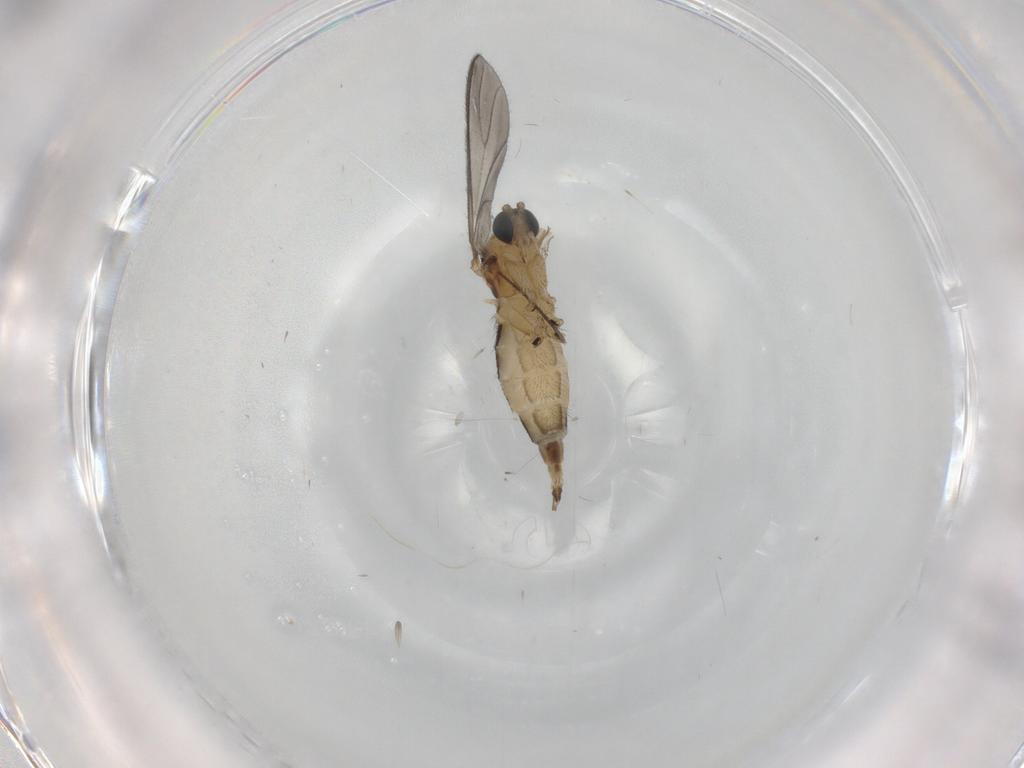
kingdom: Animalia
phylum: Arthropoda
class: Insecta
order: Diptera
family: Sciaridae
